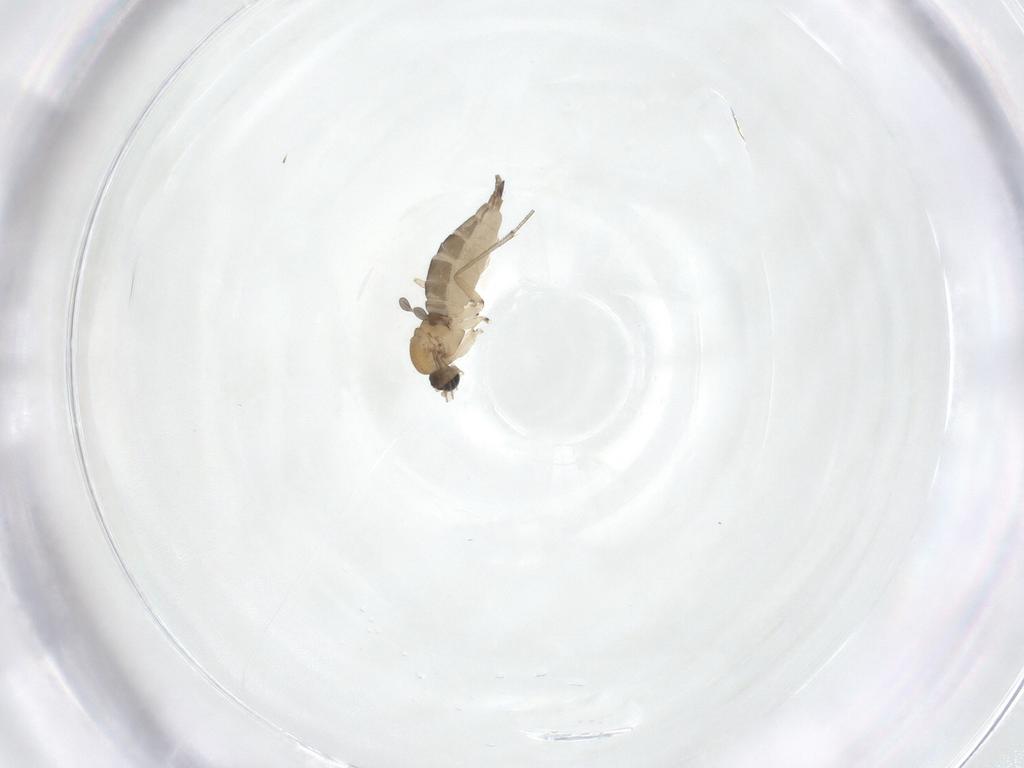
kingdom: Animalia
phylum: Arthropoda
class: Insecta
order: Diptera
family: Sciaridae
